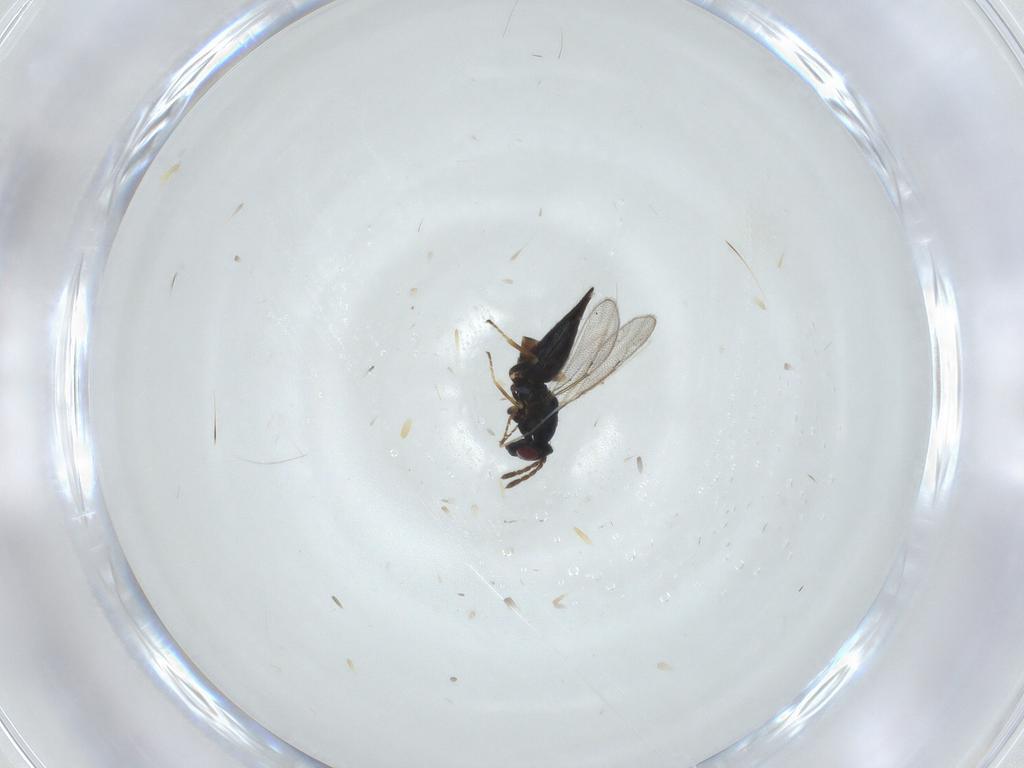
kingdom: Animalia
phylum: Arthropoda
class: Insecta
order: Hymenoptera
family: Eulophidae
